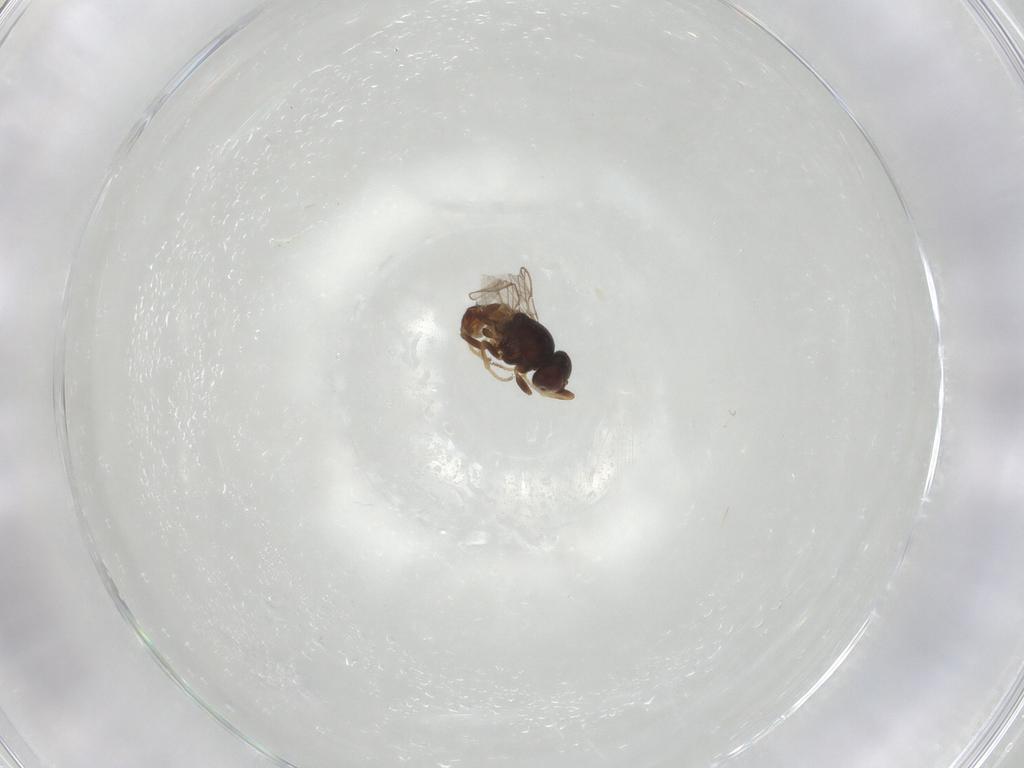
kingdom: Animalia
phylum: Arthropoda
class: Insecta
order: Diptera
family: Chloropidae
